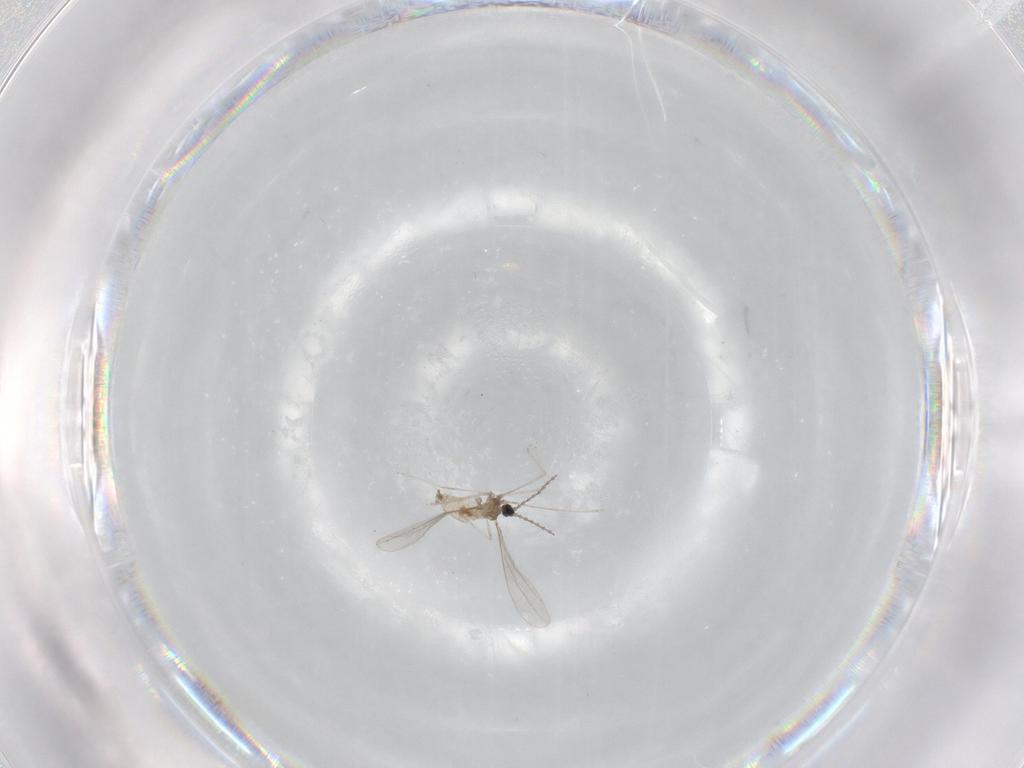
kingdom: Animalia
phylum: Arthropoda
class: Insecta
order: Diptera
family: Cecidomyiidae
